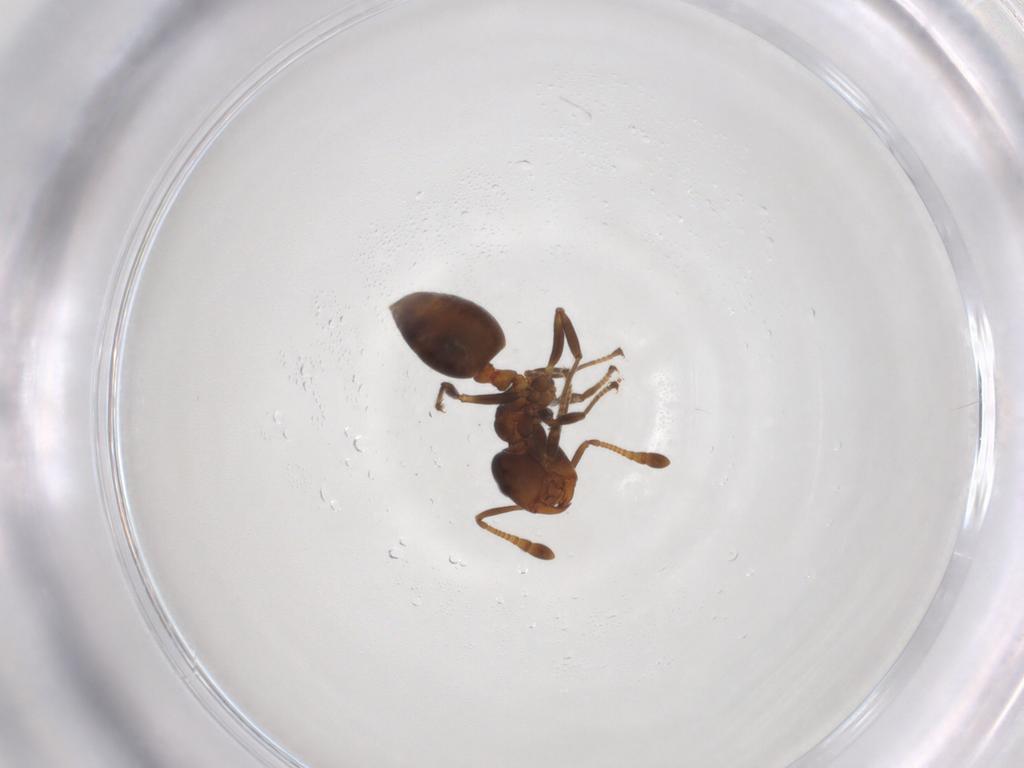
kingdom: Animalia
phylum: Arthropoda
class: Insecta
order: Hymenoptera
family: Formicidae
